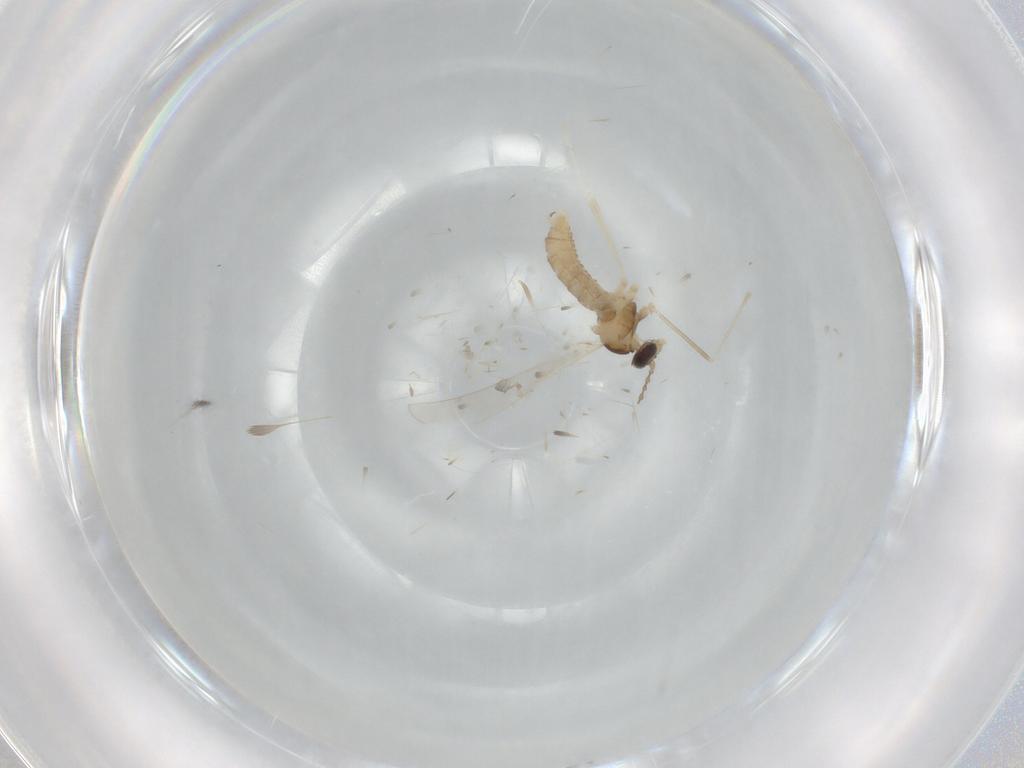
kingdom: Animalia
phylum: Arthropoda
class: Insecta
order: Diptera
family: Cecidomyiidae
